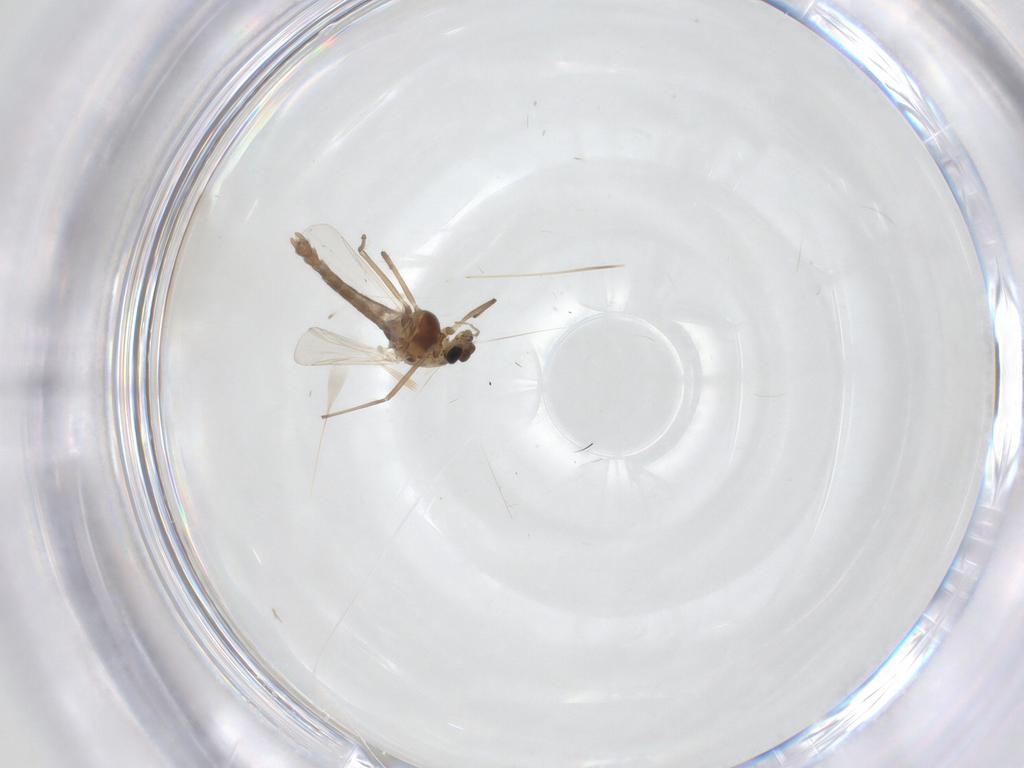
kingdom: Animalia
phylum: Arthropoda
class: Insecta
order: Diptera
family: Chironomidae
